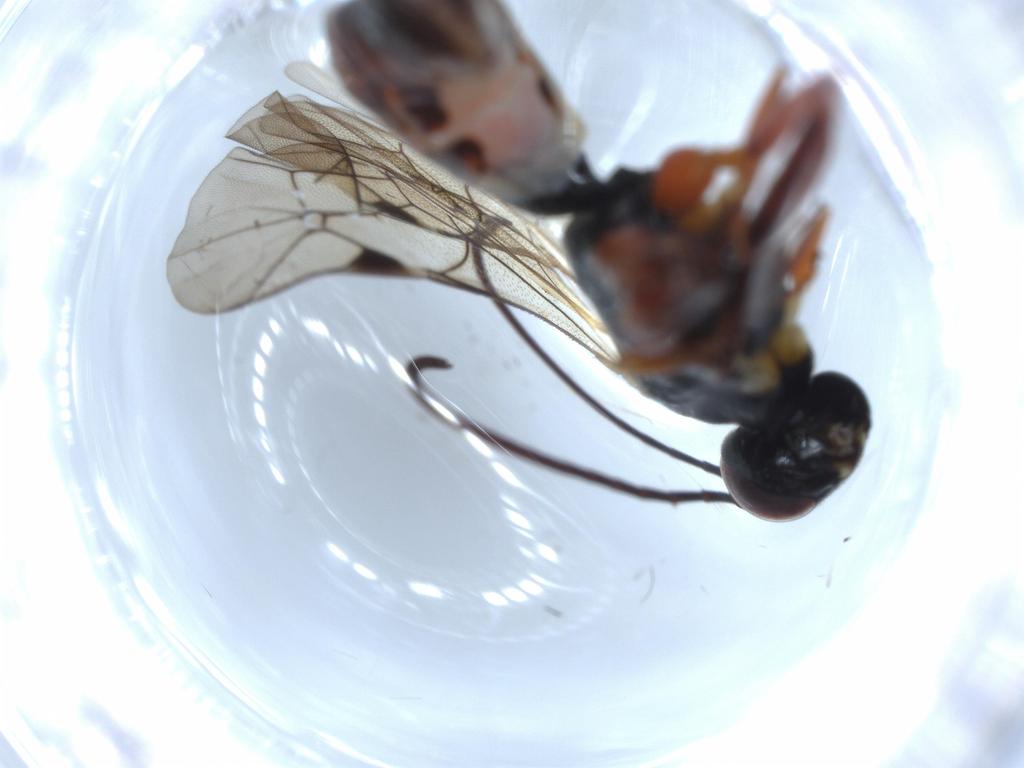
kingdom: Animalia
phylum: Arthropoda
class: Insecta
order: Hymenoptera
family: Eulophidae
